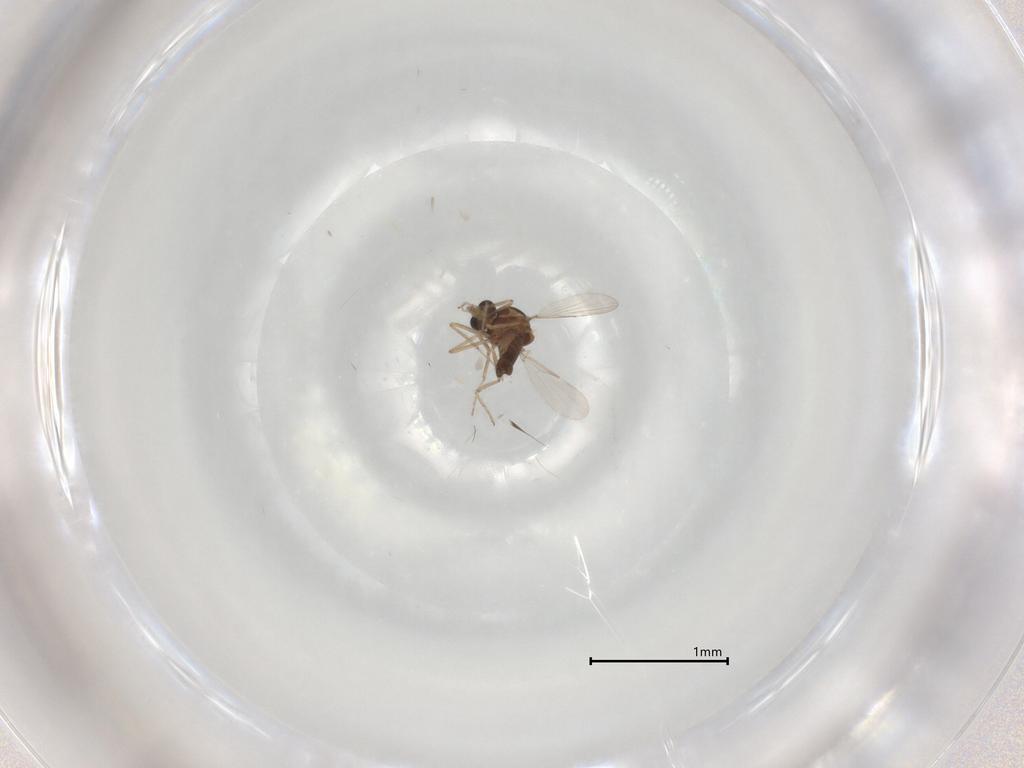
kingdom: Animalia
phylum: Arthropoda
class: Insecta
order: Diptera
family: Ceratopogonidae
